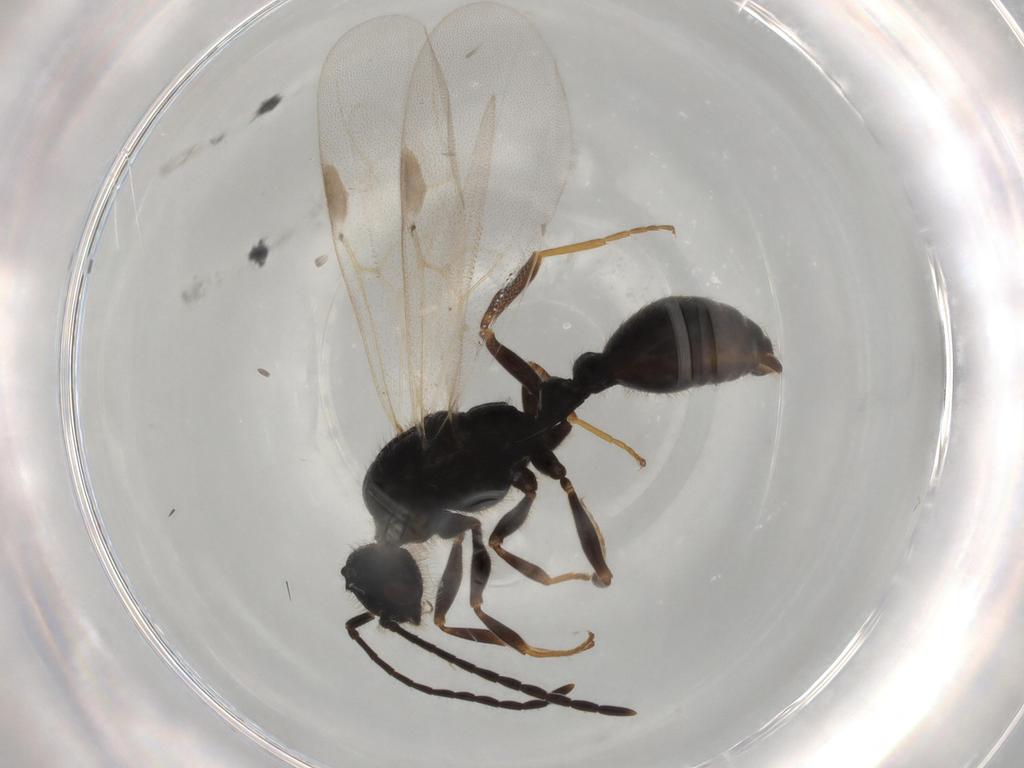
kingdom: Animalia
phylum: Arthropoda
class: Insecta
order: Hymenoptera
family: Formicidae
